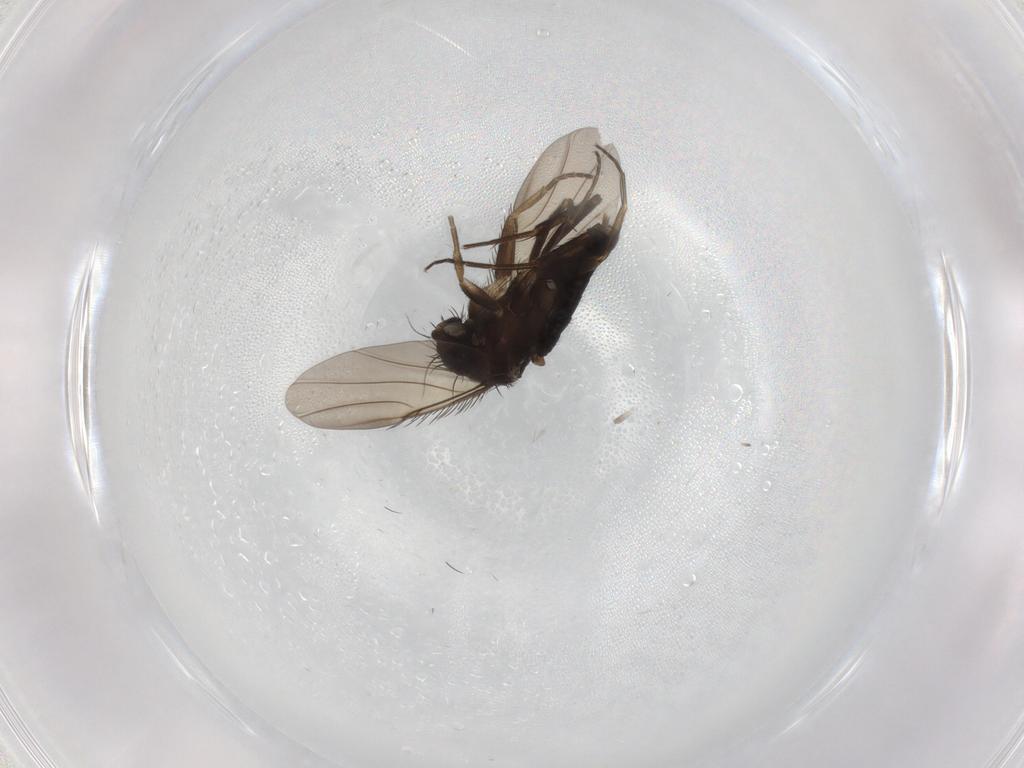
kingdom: Animalia
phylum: Arthropoda
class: Insecta
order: Diptera
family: Phoridae
